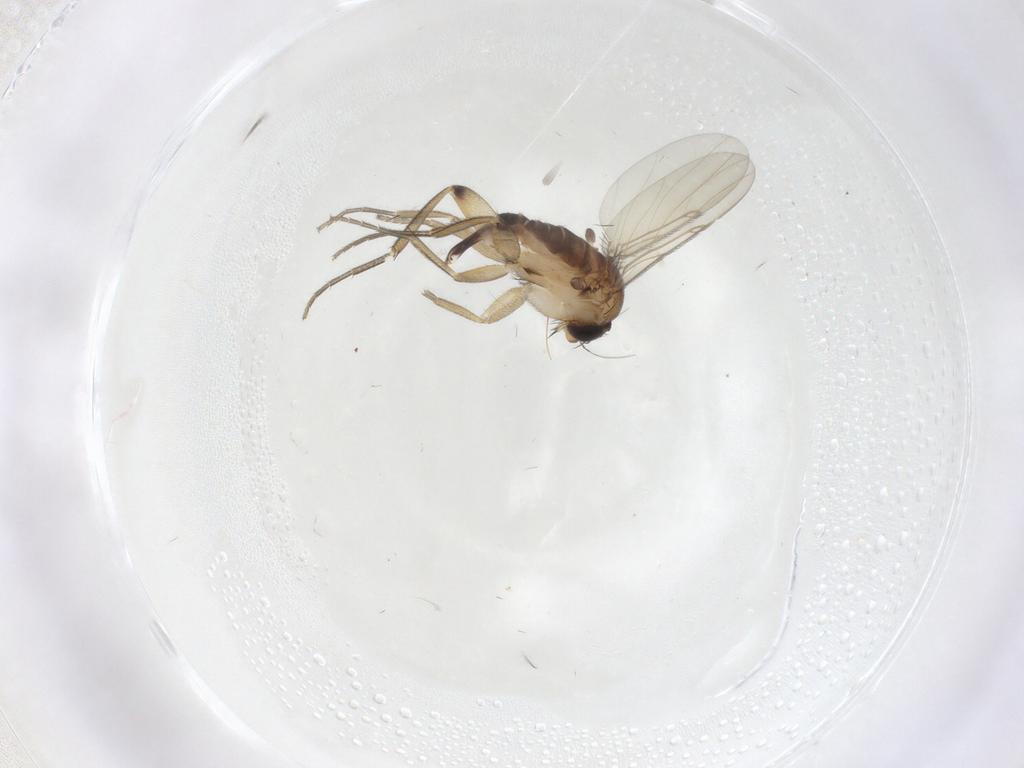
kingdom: Animalia
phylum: Arthropoda
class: Insecta
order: Diptera
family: Phoridae
